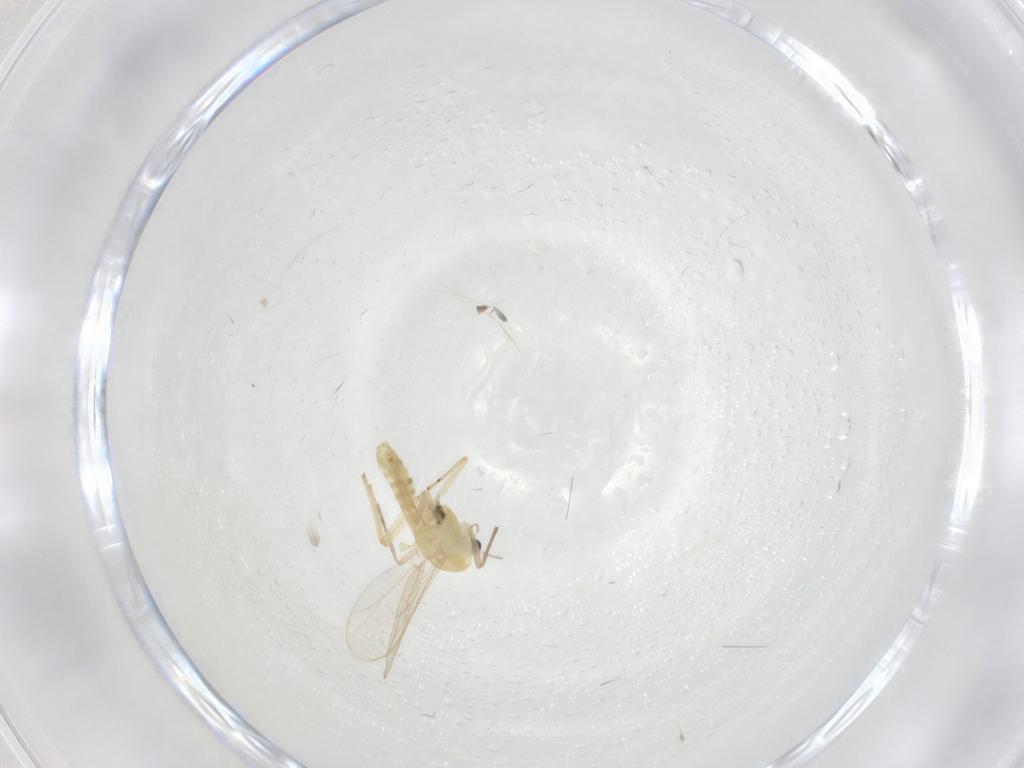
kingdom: Animalia
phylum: Arthropoda
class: Insecta
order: Diptera
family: Chironomidae
